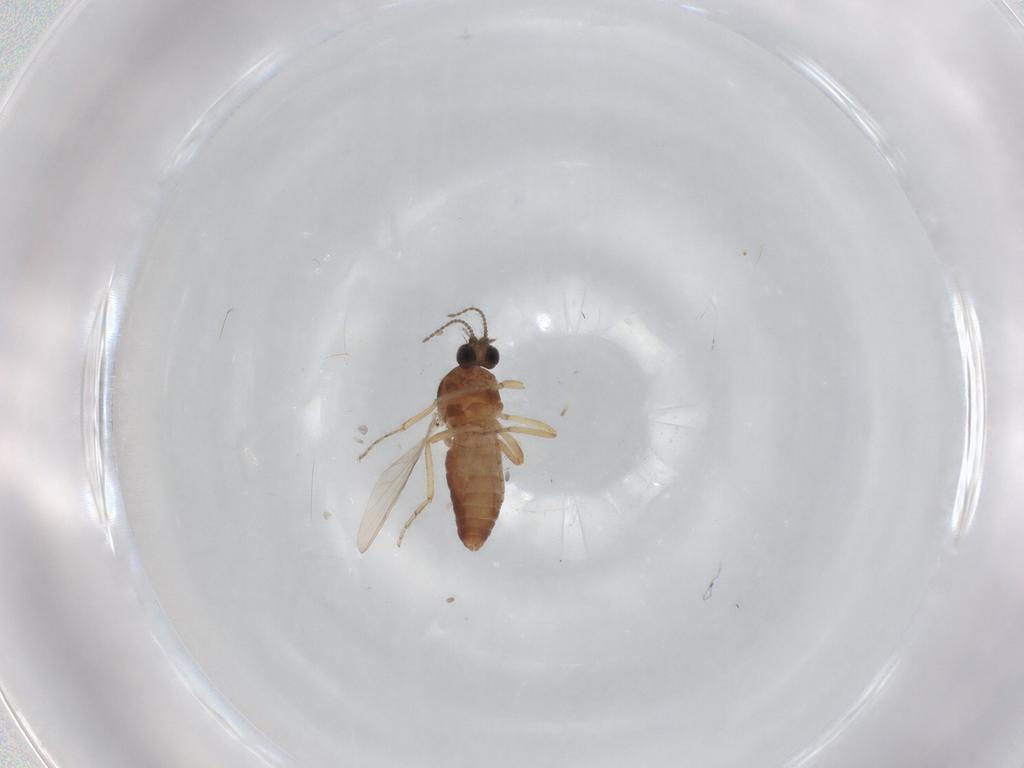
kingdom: Animalia
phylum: Arthropoda
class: Insecta
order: Diptera
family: Ceratopogonidae
